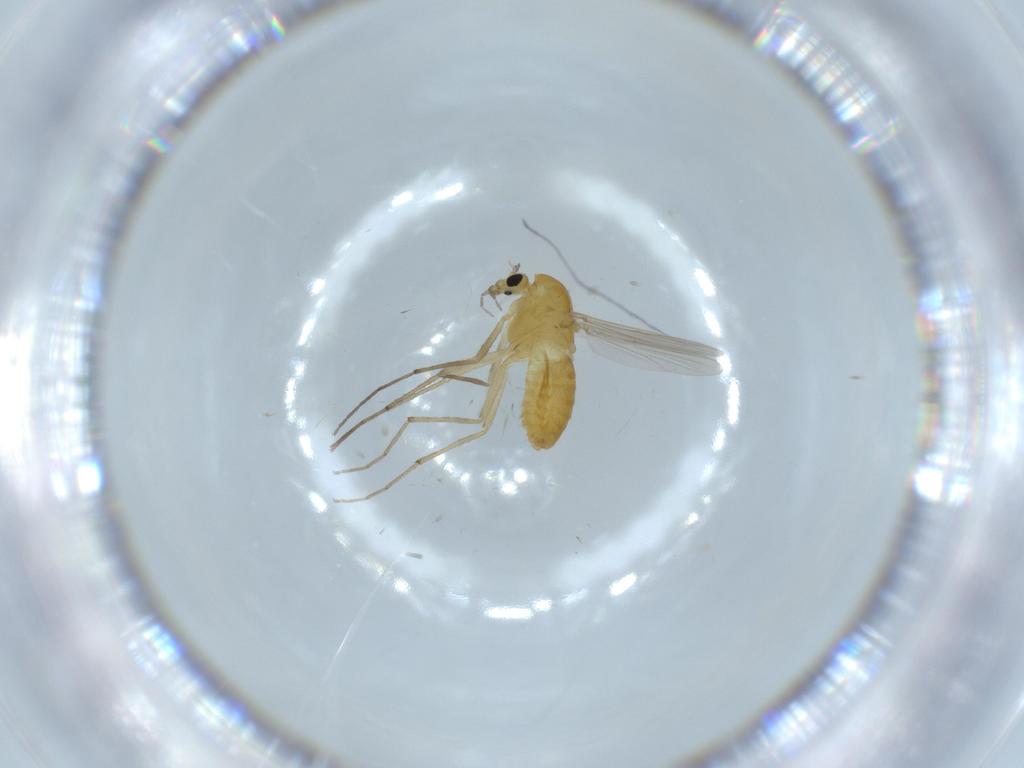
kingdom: Animalia
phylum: Arthropoda
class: Insecta
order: Diptera
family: Chironomidae
